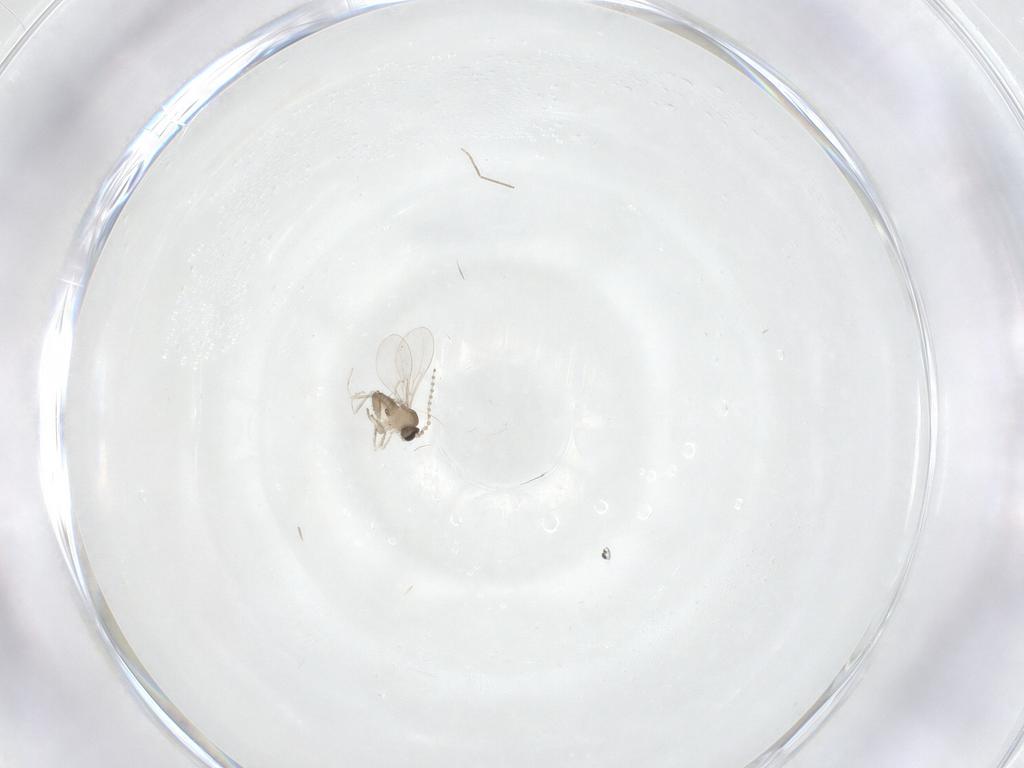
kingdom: Animalia
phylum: Arthropoda
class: Insecta
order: Diptera
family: Cecidomyiidae
